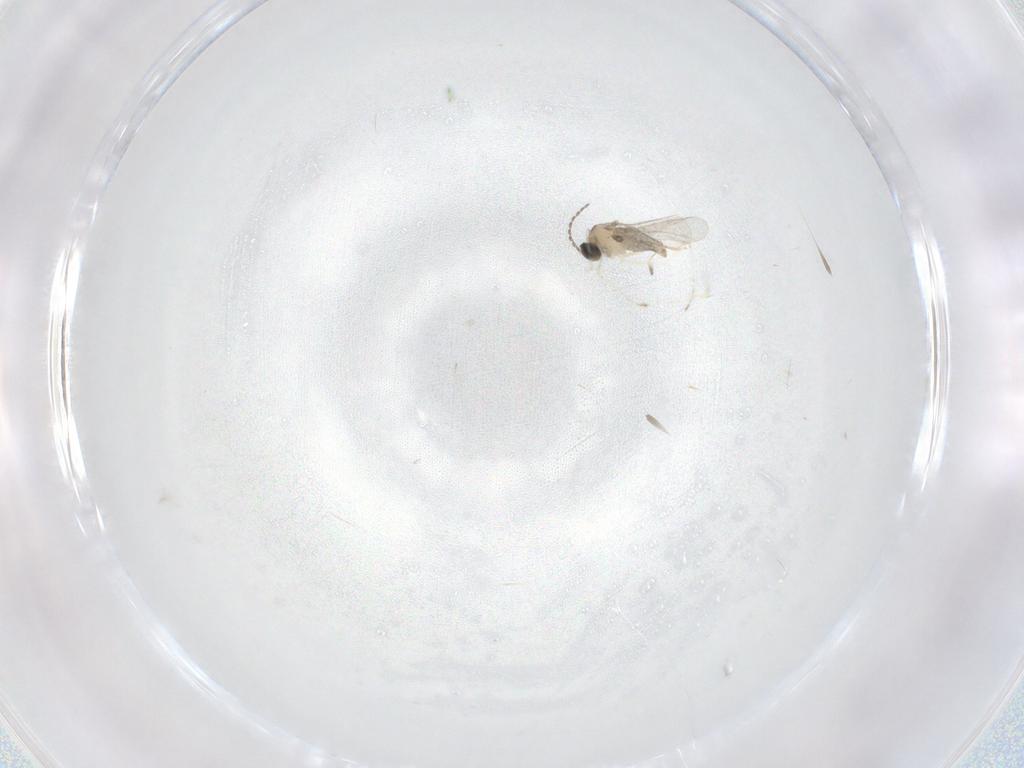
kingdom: Animalia
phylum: Arthropoda
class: Insecta
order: Diptera
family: Cecidomyiidae
